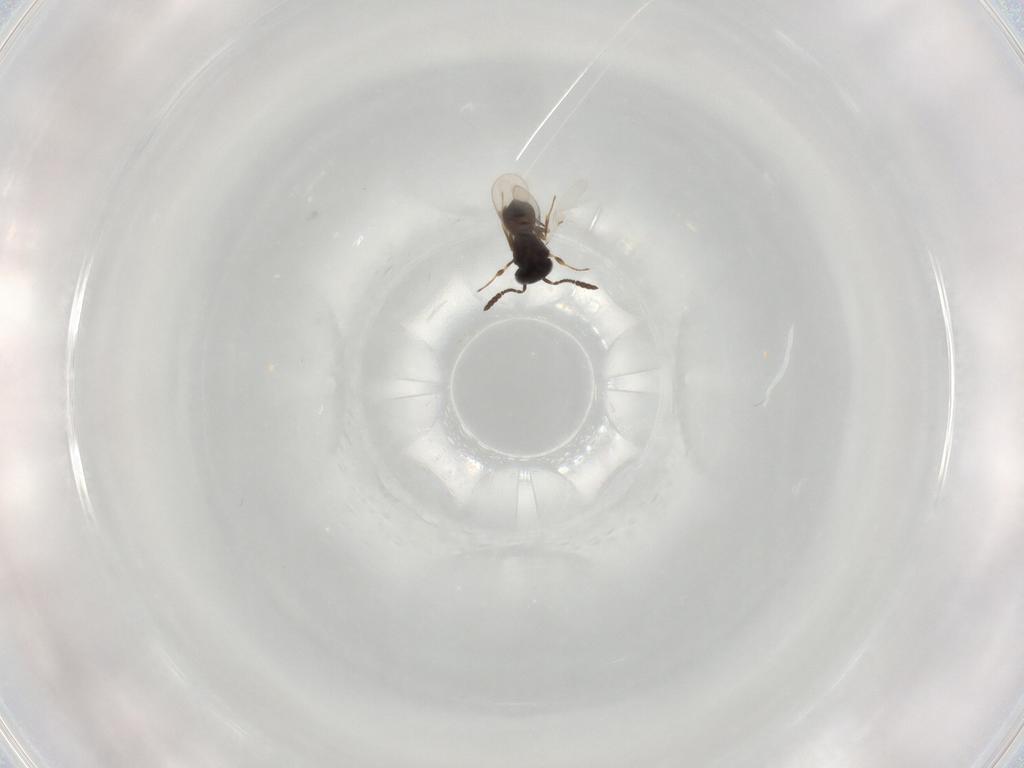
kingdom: Animalia
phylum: Arthropoda
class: Insecta
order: Hymenoptera
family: Scelionidae
